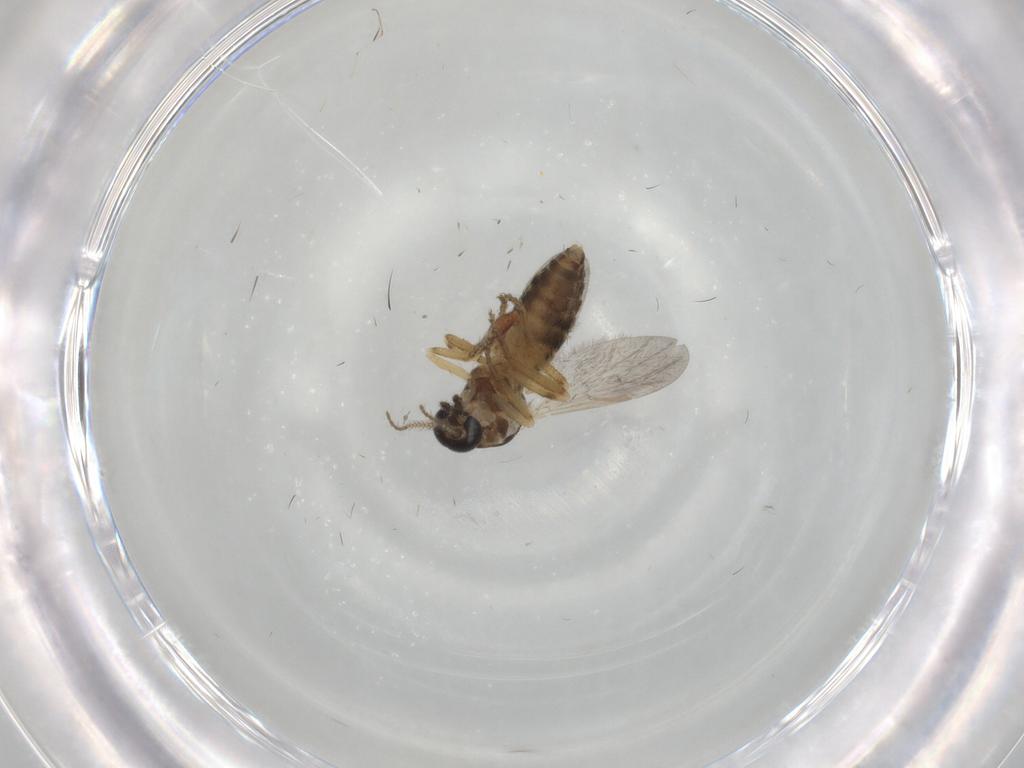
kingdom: Animalia
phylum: Arthropoda
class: Insecta
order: Diptera
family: Ceratopogonidae
